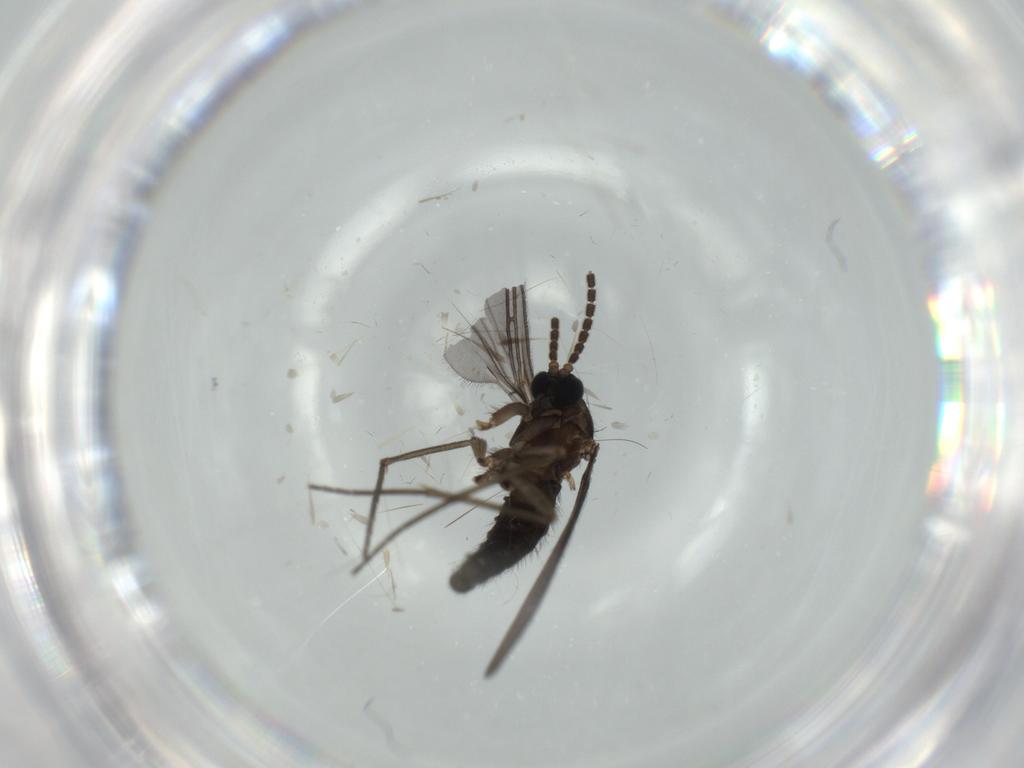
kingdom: Animalia
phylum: Arthropoda
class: Insecta
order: Diptera
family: Sciaridae
